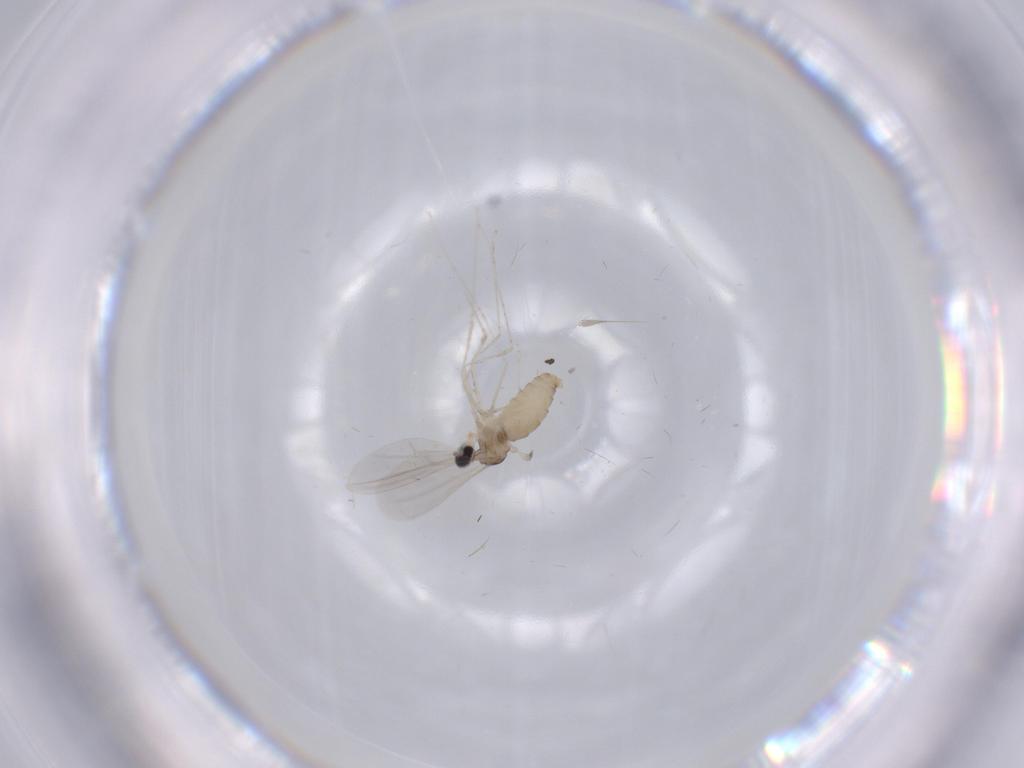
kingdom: Animalia
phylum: Arthropoda
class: Insecta
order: Diptera
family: Cecidomyiidae
